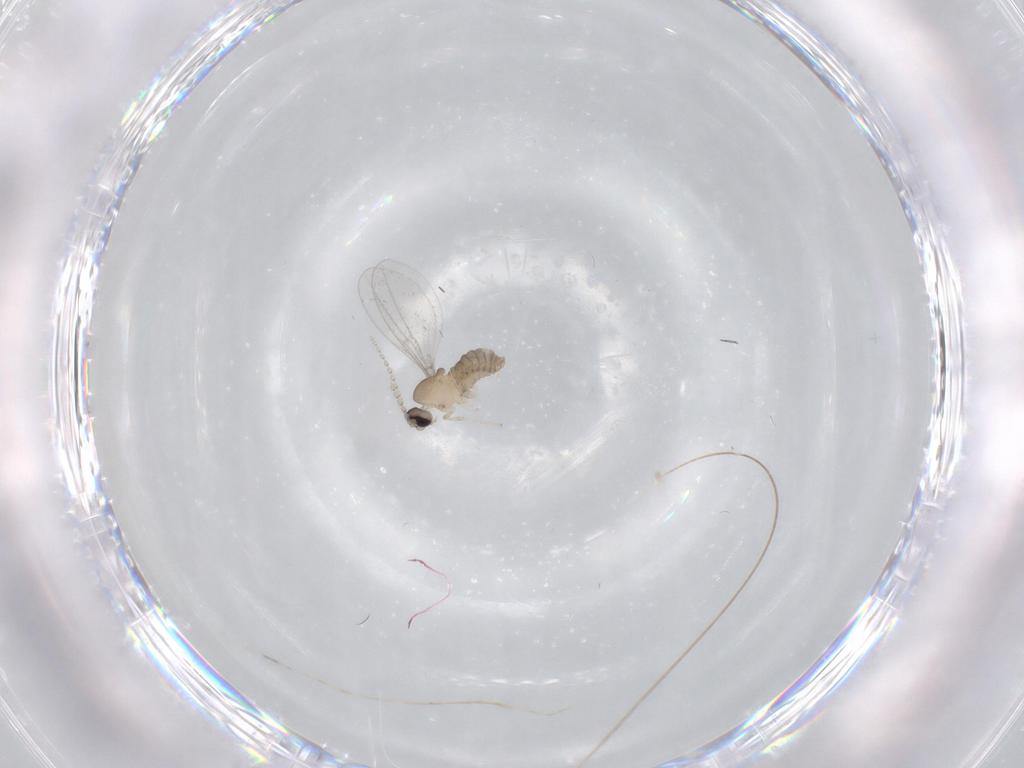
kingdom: Animalia
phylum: Arthropoda
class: Insecta
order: Diptera
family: Cecidomyiidae
